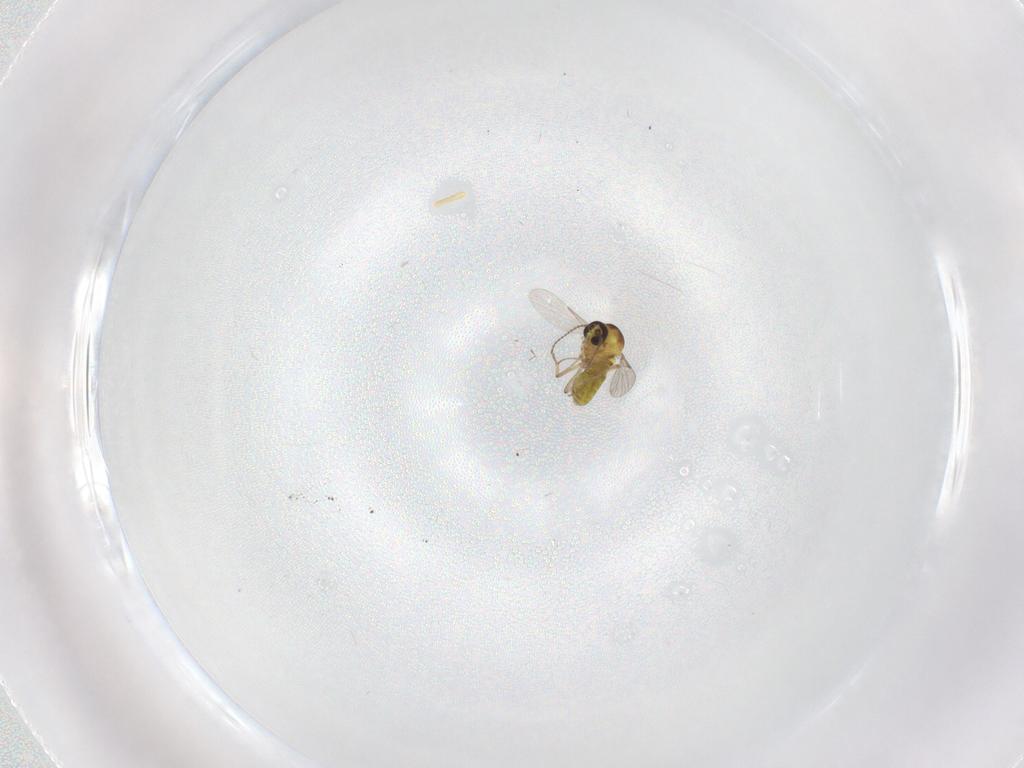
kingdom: Animalia
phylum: Arthropoda
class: Insecta
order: Diptera
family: Chironomidae
